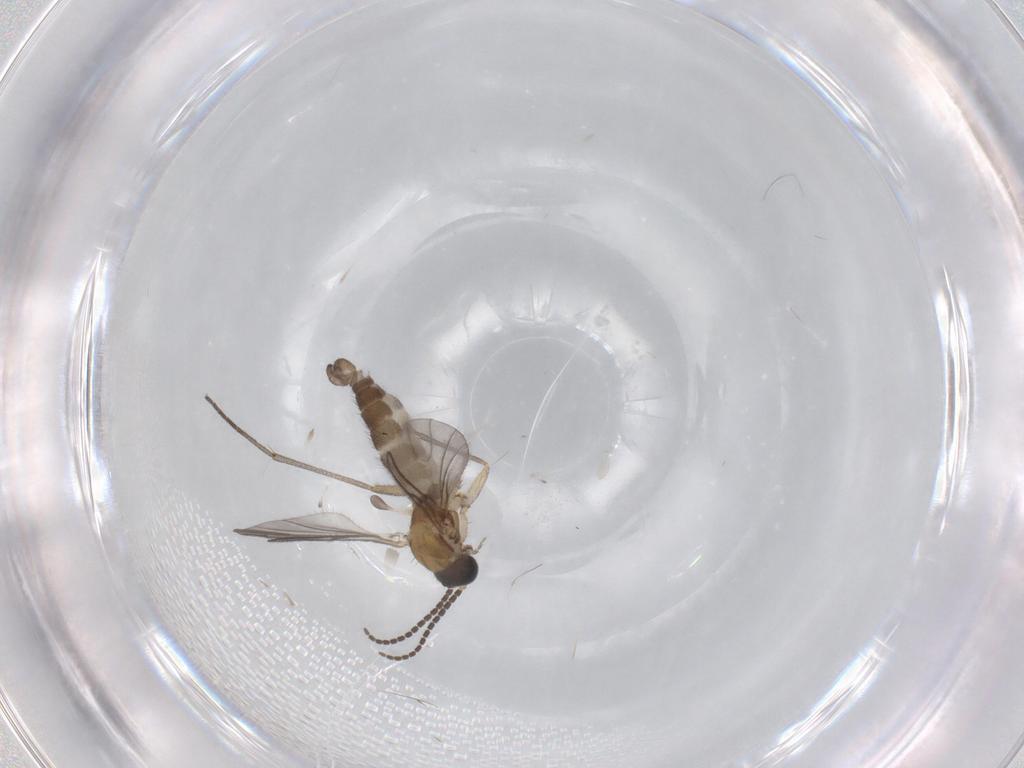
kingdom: Animalia
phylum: Arthropoda
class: Insecta
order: Diptera
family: Sciaridae
